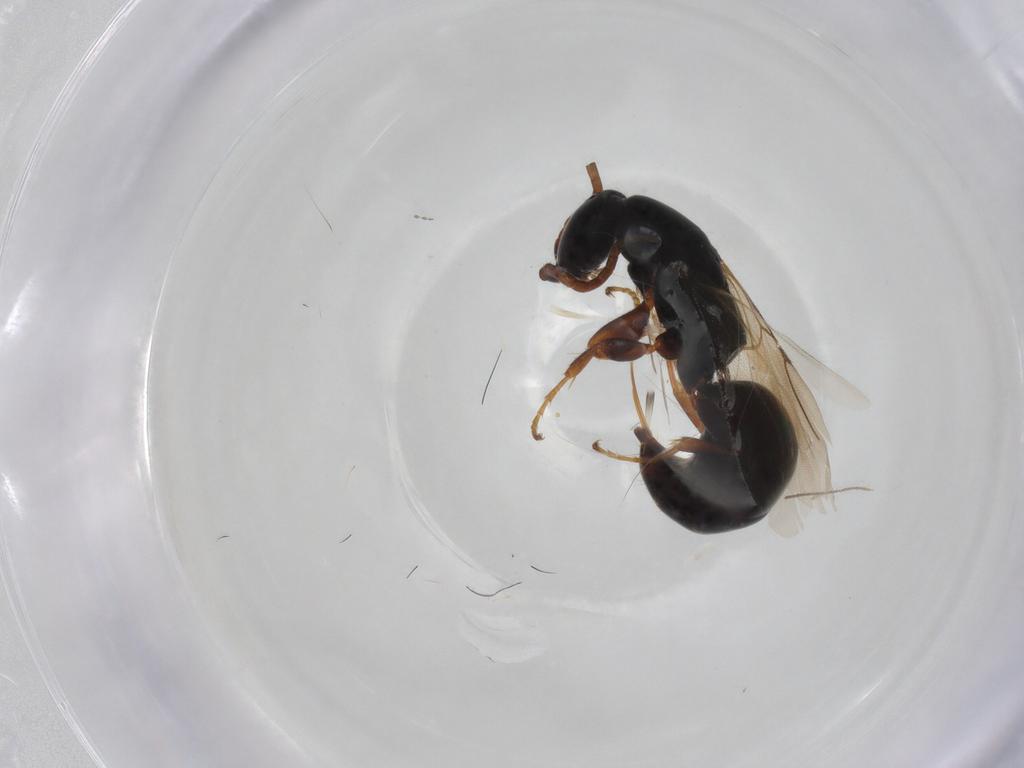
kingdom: Animalia
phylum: Arthropoda
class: Insecta
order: Hymenoptera
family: Bethylidae
